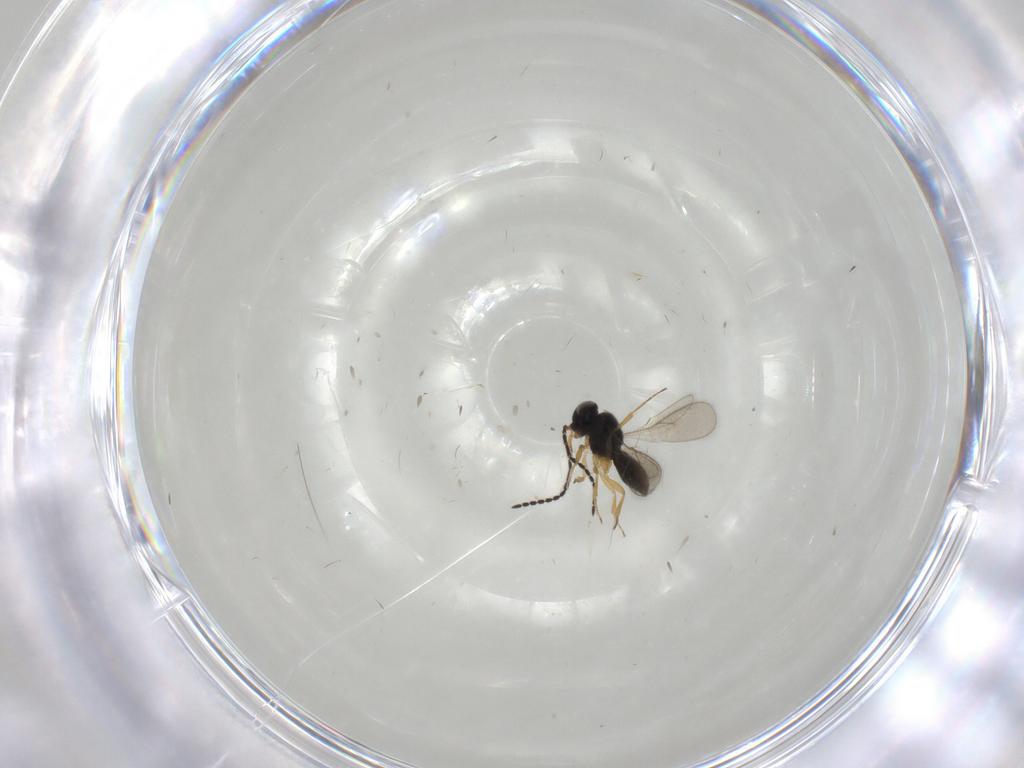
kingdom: Animalia
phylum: Arthropoda
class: Insecta
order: Hymenoptera
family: Scelionidae
